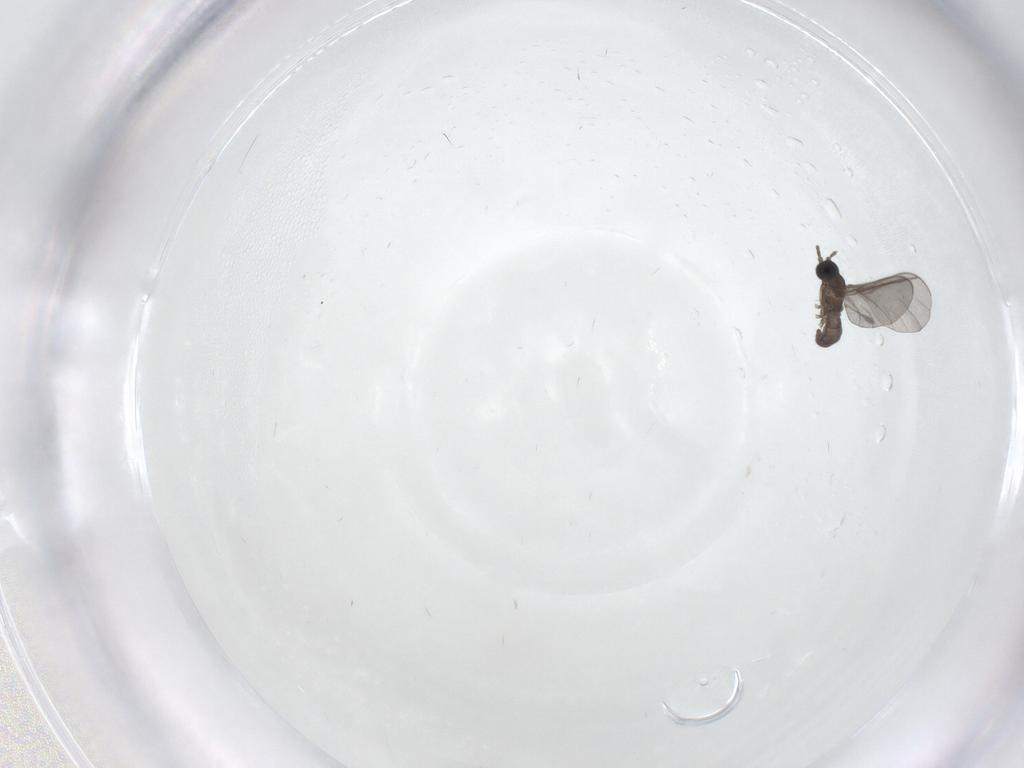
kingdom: Animalia
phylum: Arthropoda
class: Insecta
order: Diptera
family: Sciaridae
